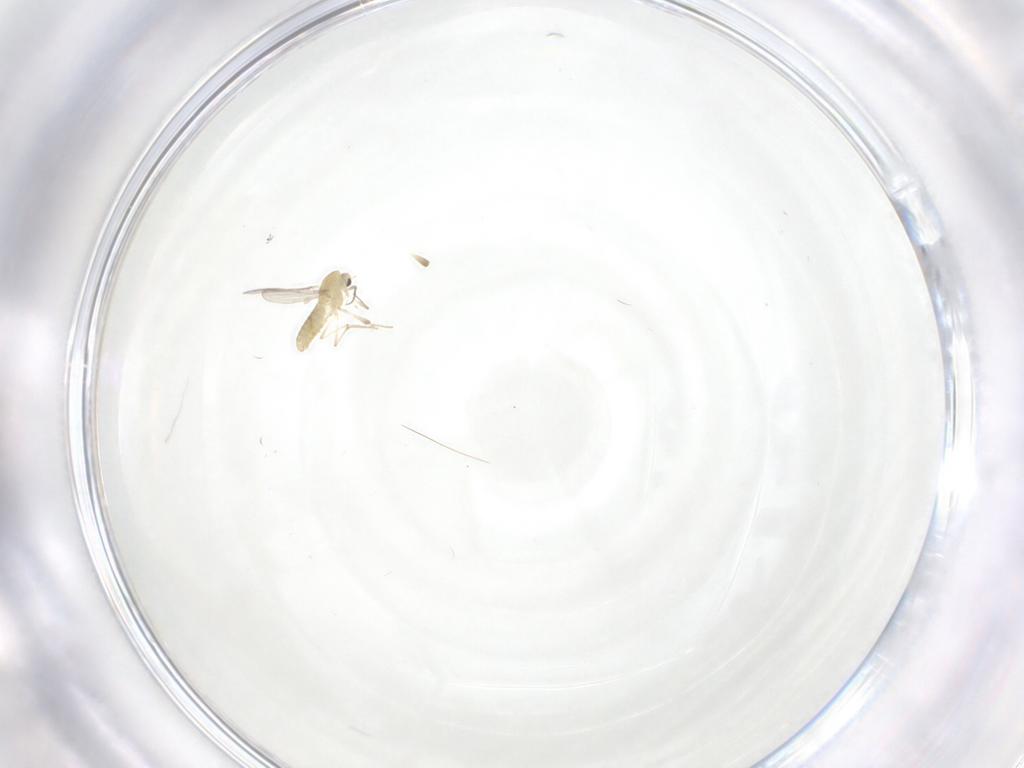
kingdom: Animalia
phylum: Arthropoda
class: Insecta
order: Diptera
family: Chironomidae
